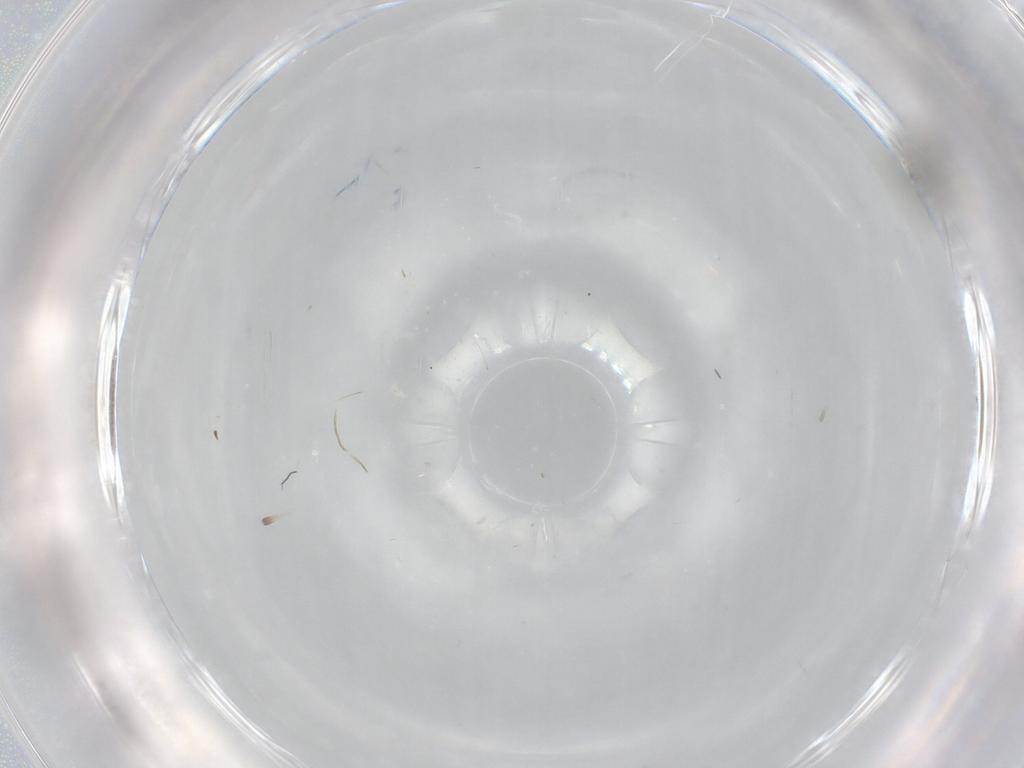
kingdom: Animalia
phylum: Arthropoda
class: Insecta
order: Hymenoptera
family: Scelionidae
